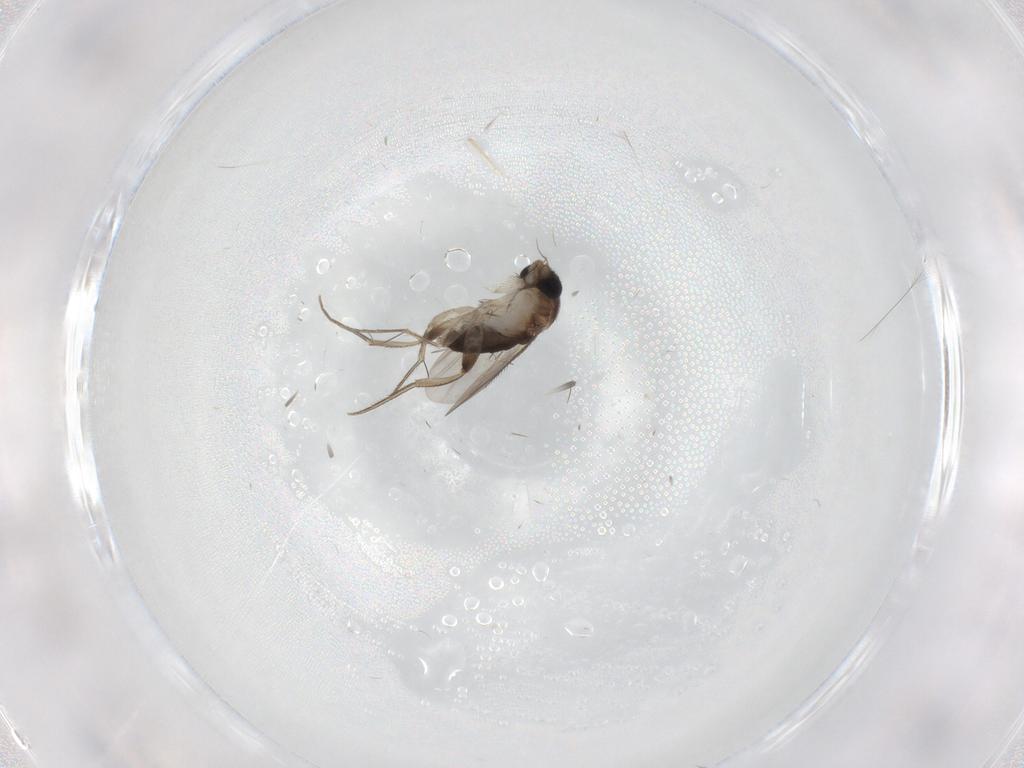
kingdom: Animalia
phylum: Arthropoda
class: Insecta
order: Diptera
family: Phoridae
